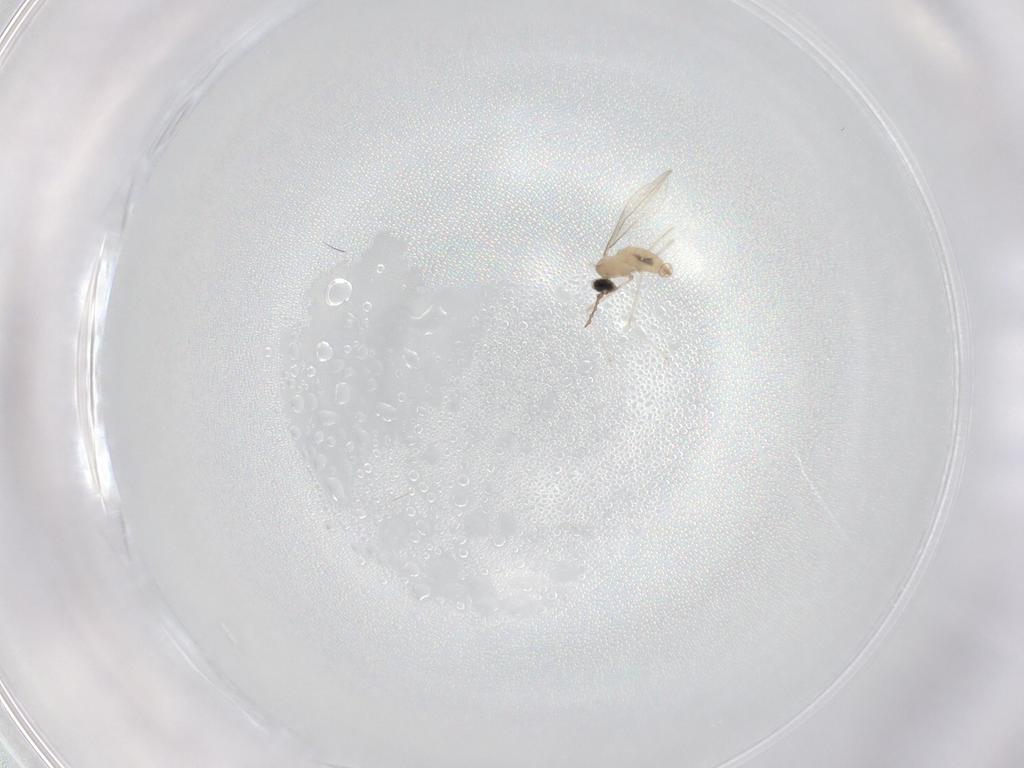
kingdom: Animalia
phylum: Arthropoda
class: Insecta
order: Diptera
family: Cecidomyiidae
